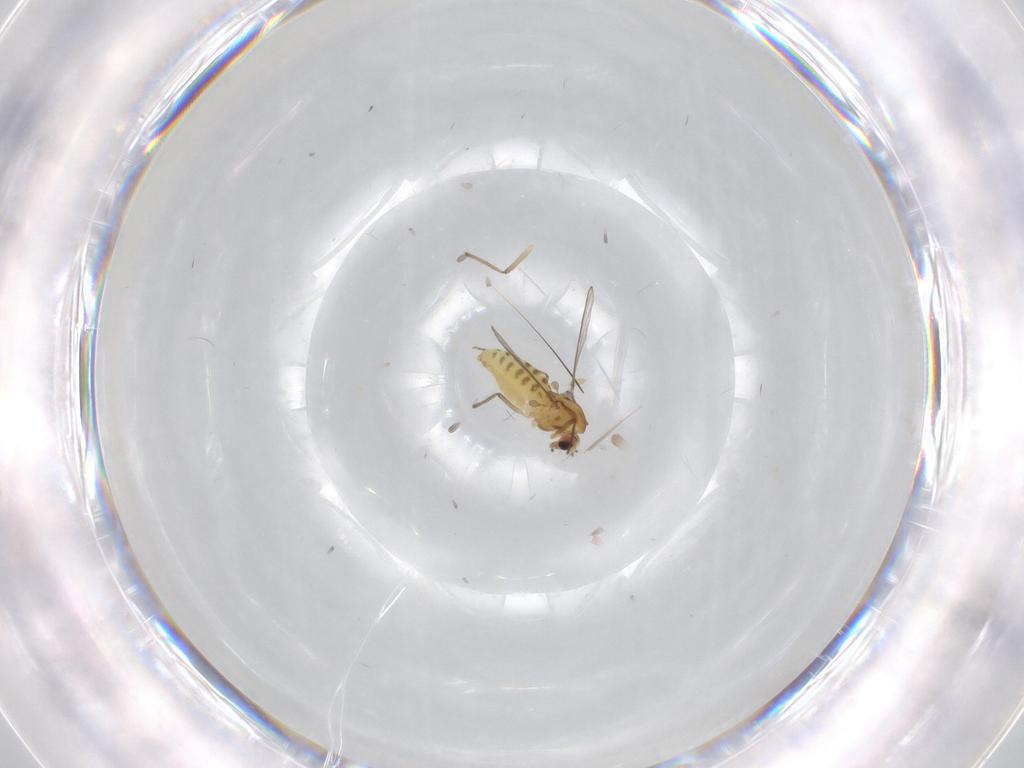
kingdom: Animalia
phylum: Arthropoda
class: Insecta
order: Diptera
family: Chironomidae
